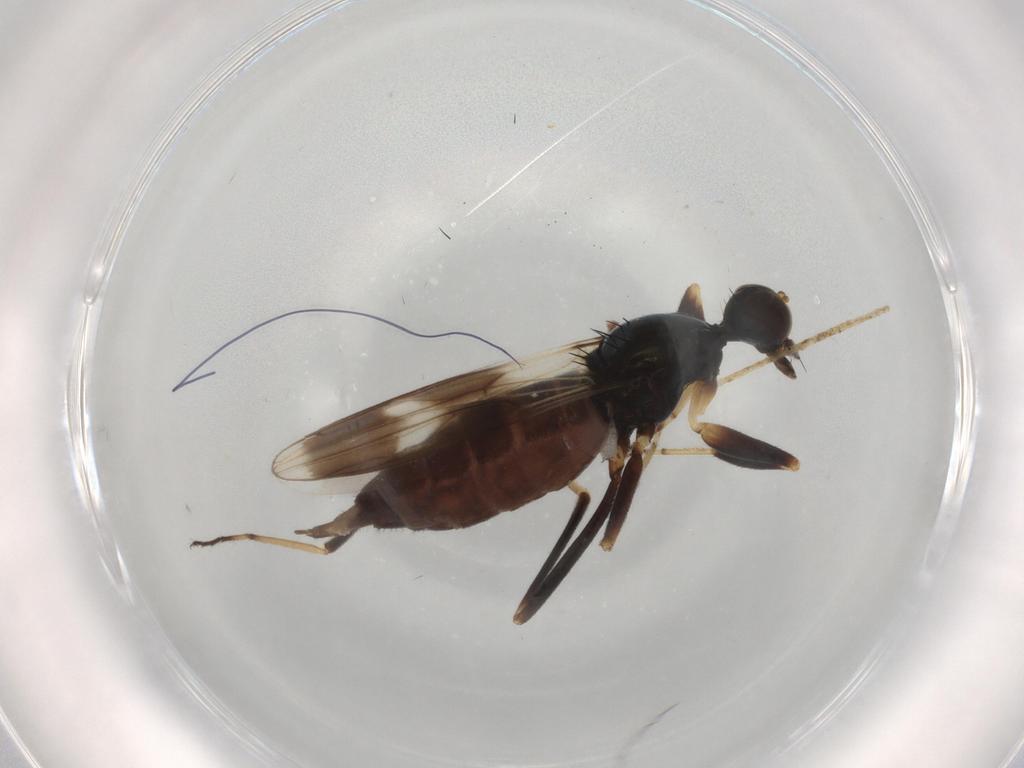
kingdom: Animalia
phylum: Arthropoda
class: Insecta
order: Diptera
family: Hybotidae
